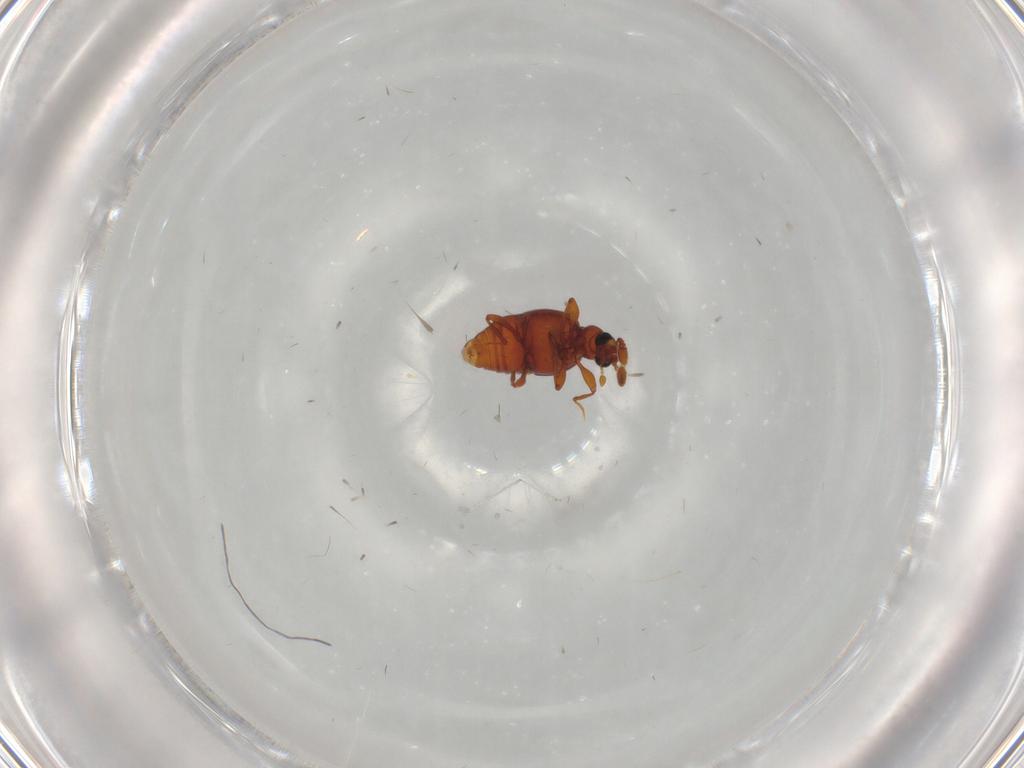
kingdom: Animalia
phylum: Arthropoda
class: Insecta
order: Coleoptera
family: Staphylinidae
